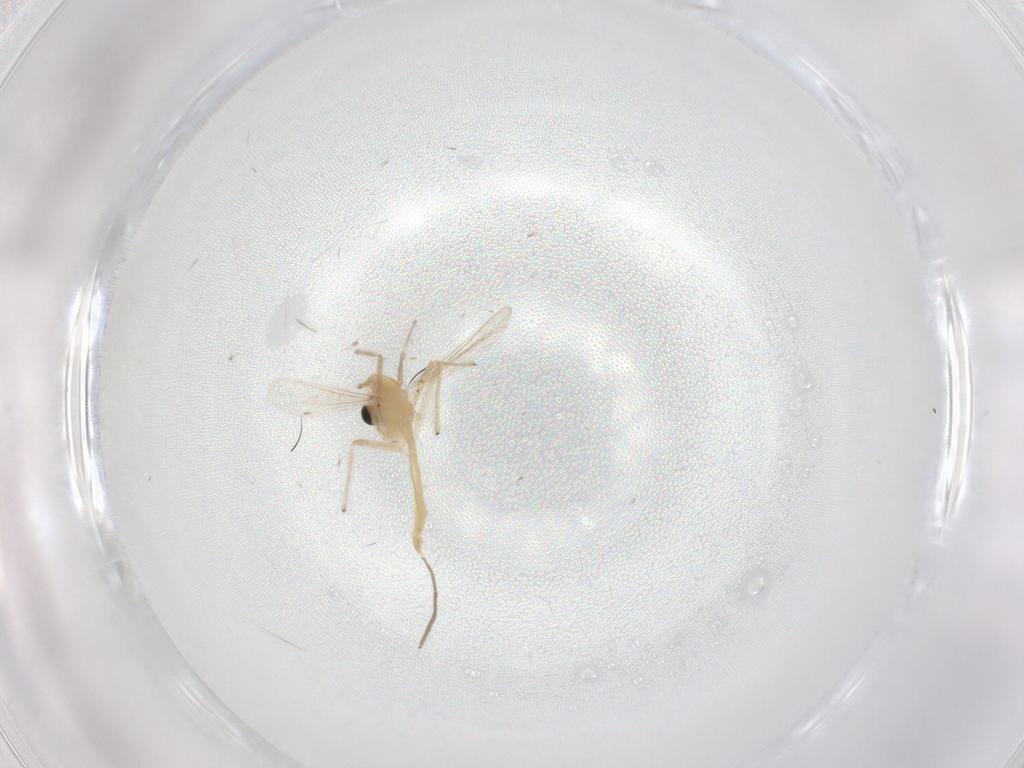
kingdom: Animalia
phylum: Arthropoda
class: Insecta
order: Diptera
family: Chironomidae
